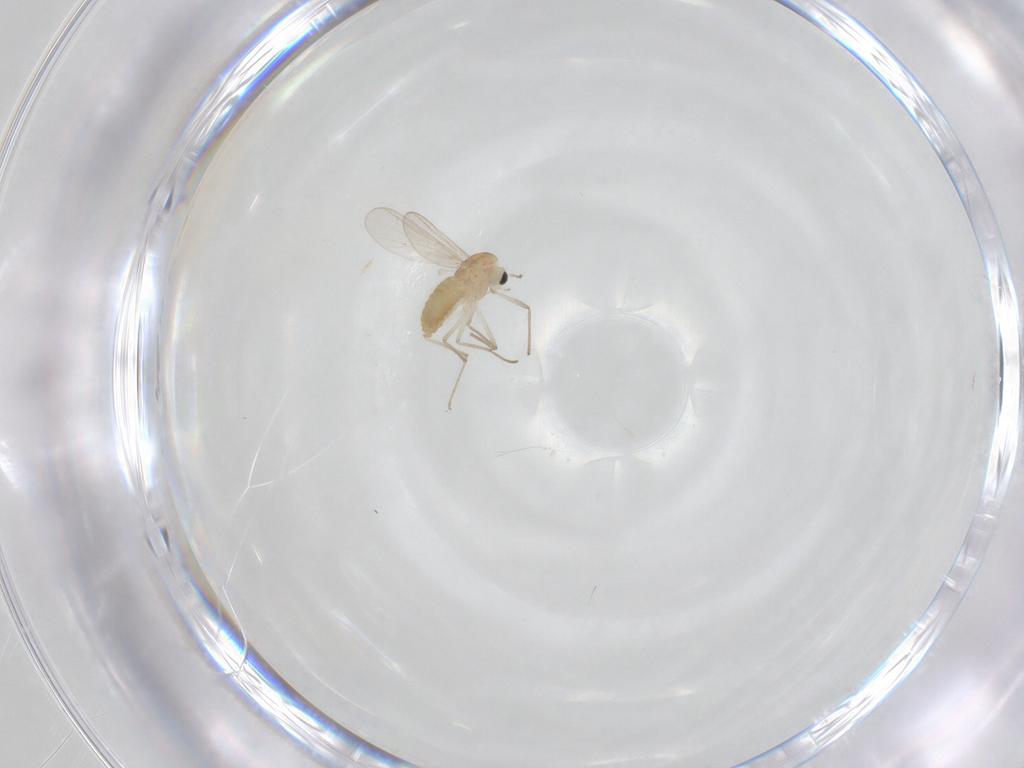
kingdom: Animalia
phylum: Arthropoda
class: Insecta
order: Diptera
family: Chironomidae
